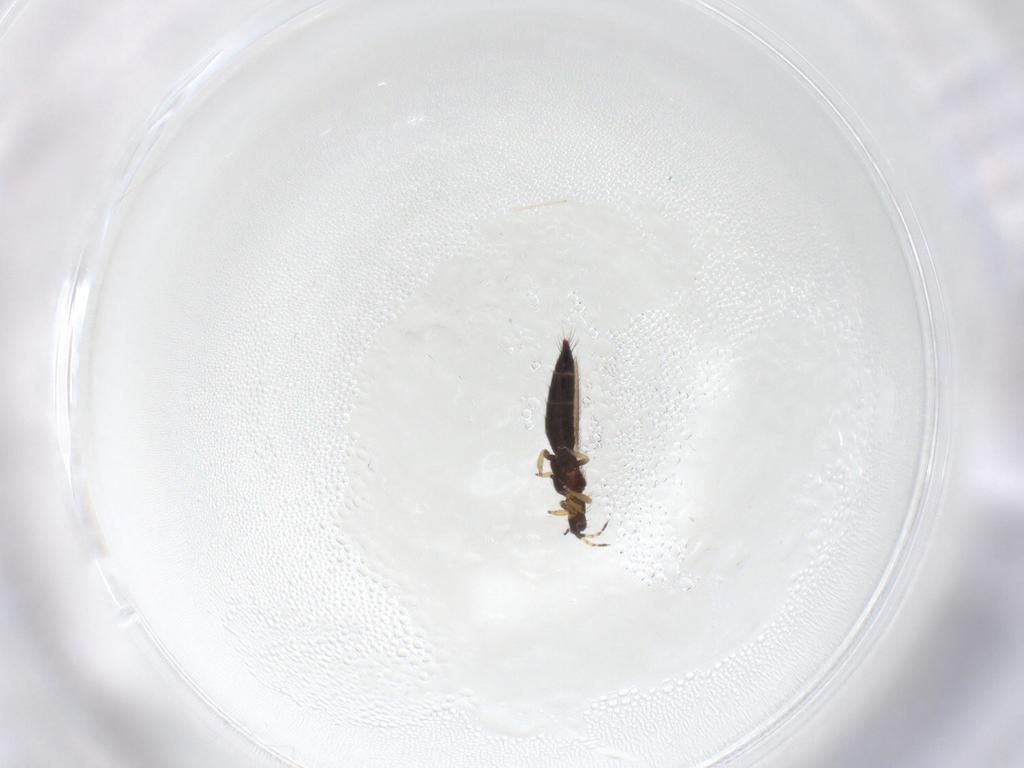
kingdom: Animalia
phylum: Arthropoda
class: Insecta
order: Thysanoptera
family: Thripidae
